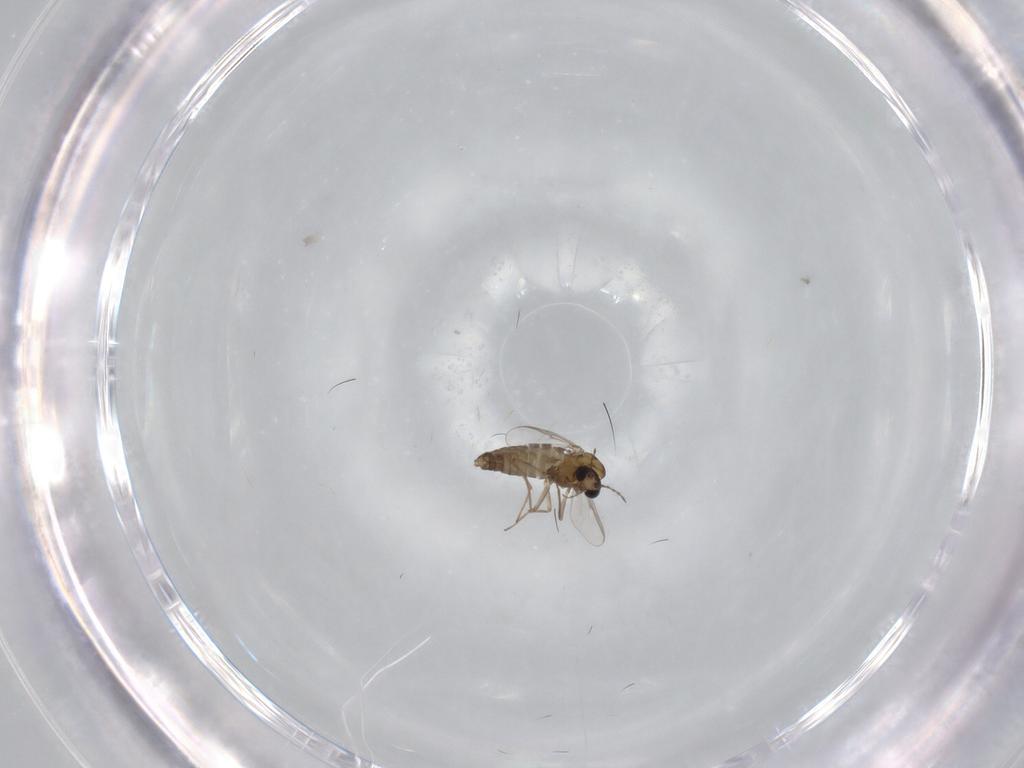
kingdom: Animalia
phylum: Arthropoda
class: Insecta
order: Diptera
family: Chironomidae
